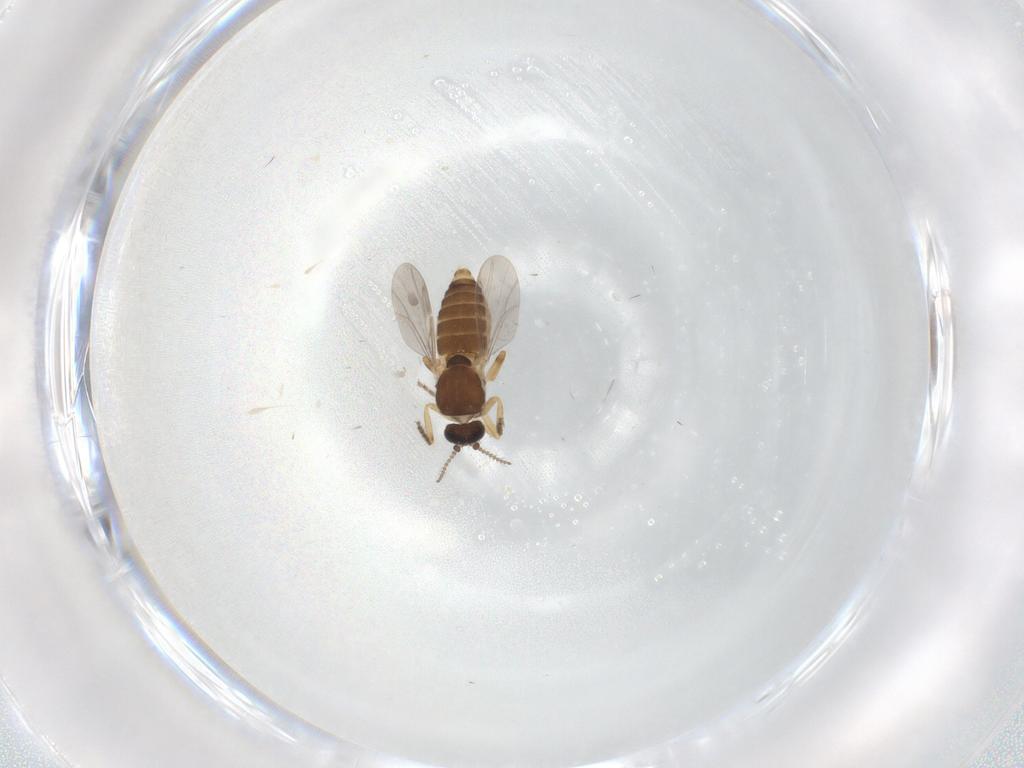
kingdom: Animalia
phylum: Arthropoda
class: Insecta
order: Diptera
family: Ceratopogonidae
